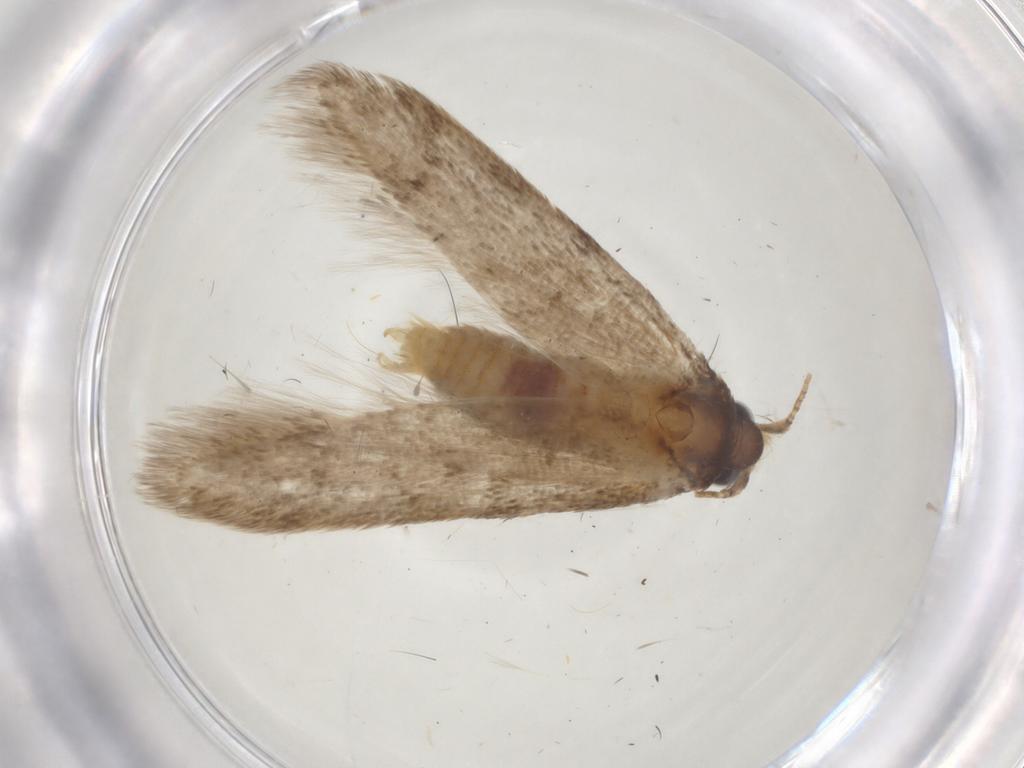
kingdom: Animalia
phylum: Arthropoda
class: Insecta
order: Lepidoptera
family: Coleophoridae
